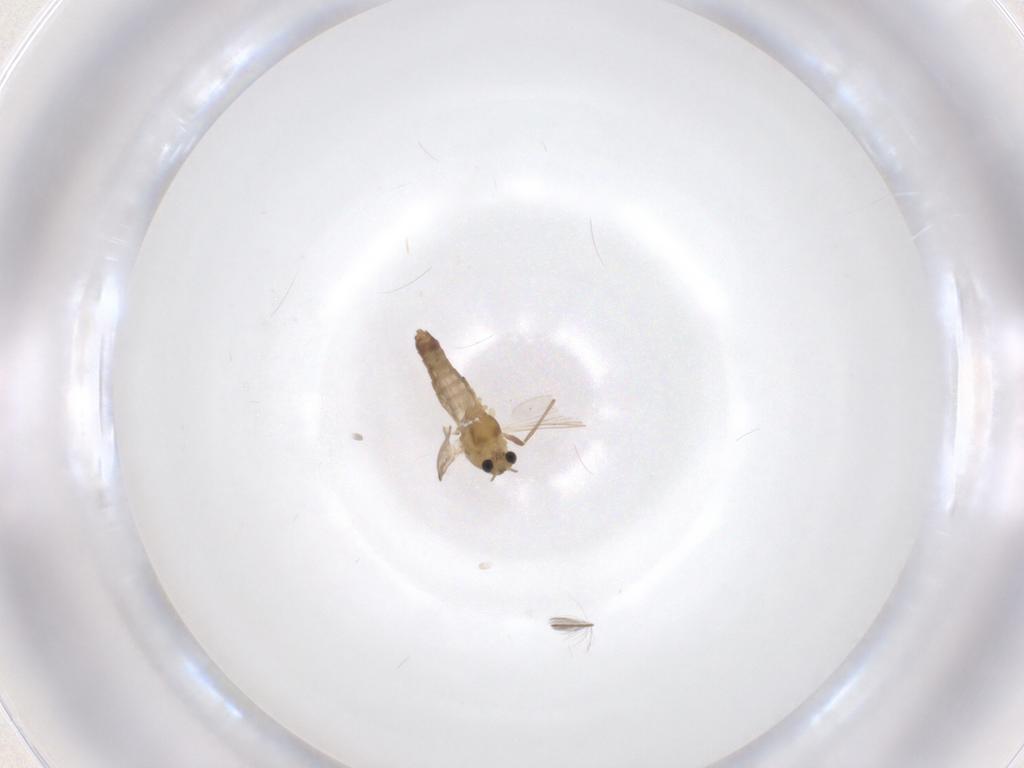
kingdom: Animalia
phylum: Arthropoda
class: Insecta
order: Diptera
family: Chironomidae
